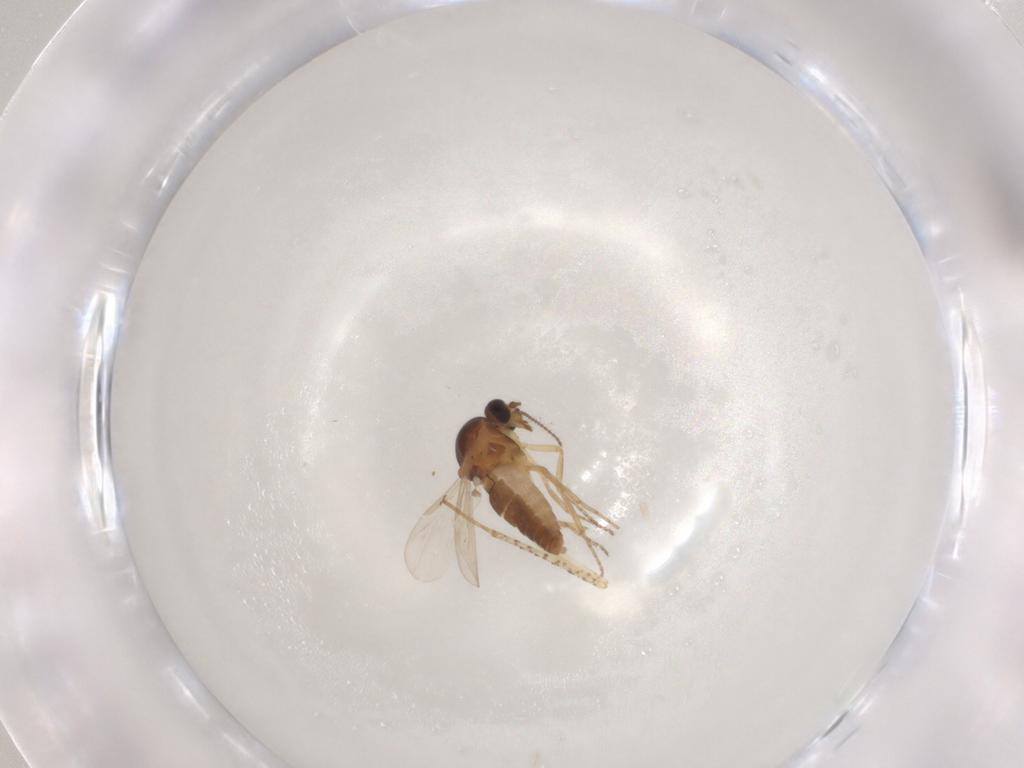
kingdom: Animalia
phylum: Arthropoda
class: Insecta
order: Diptera
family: Ceratopogonidae
